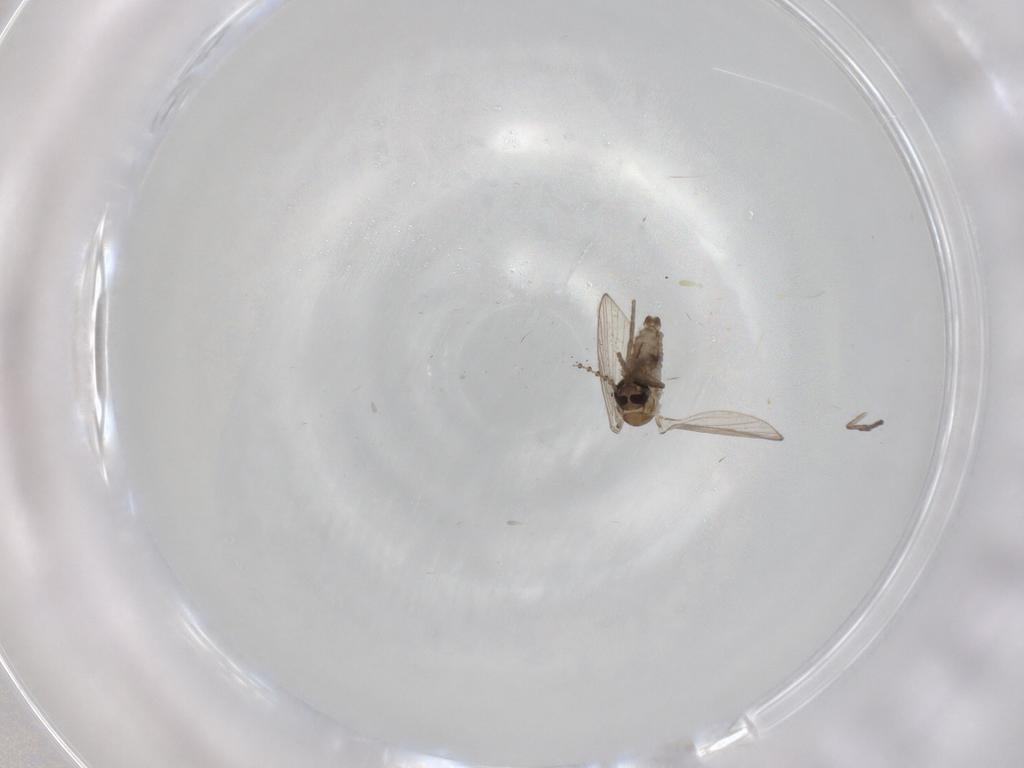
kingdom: Animalia
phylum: Arthropoda
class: Insecta
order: Diptera
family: Psychodidae
